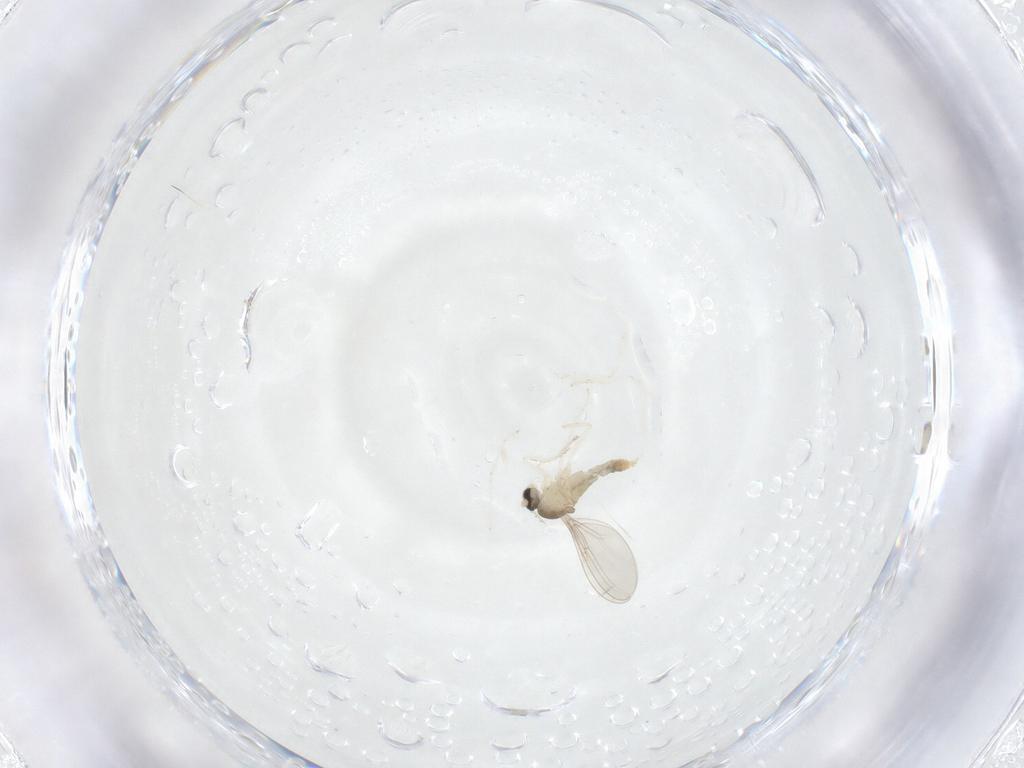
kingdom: Animalia
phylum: Arthropoda
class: Insecta
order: Diptera
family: Cecidomyiidae
